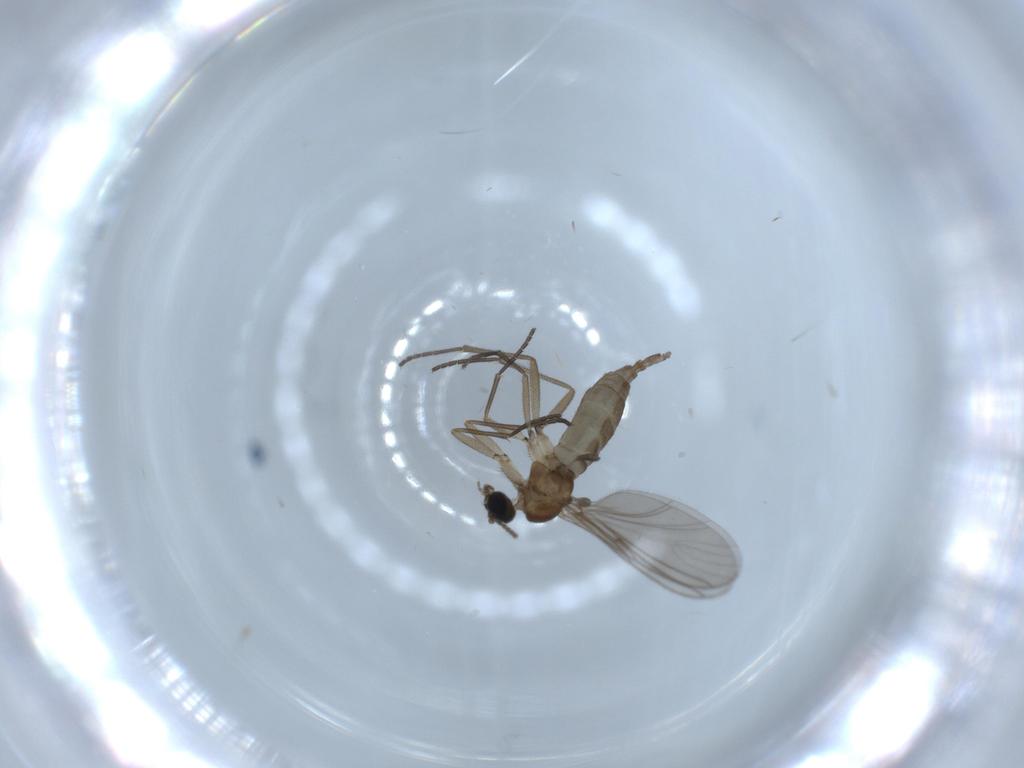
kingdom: Animalia
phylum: Arthropoda
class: Insecta
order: Diptera
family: Sciaridae
